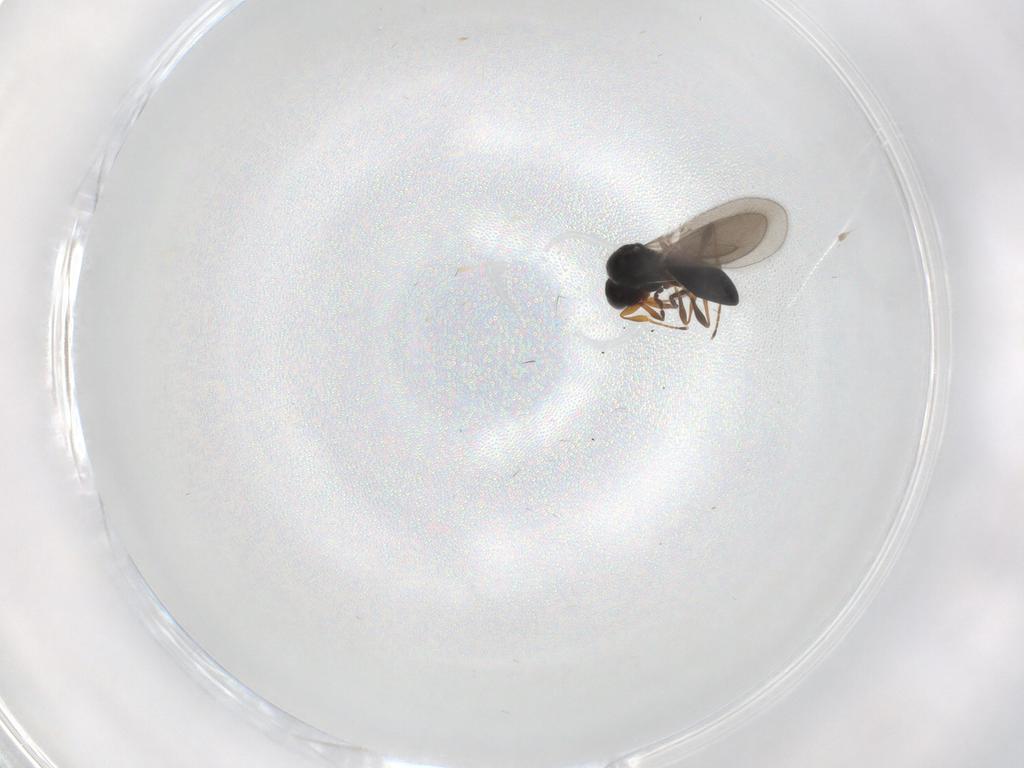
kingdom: Animalia
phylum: Arthropoda
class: Insecta
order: Hymenoptera
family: Platygastridae
